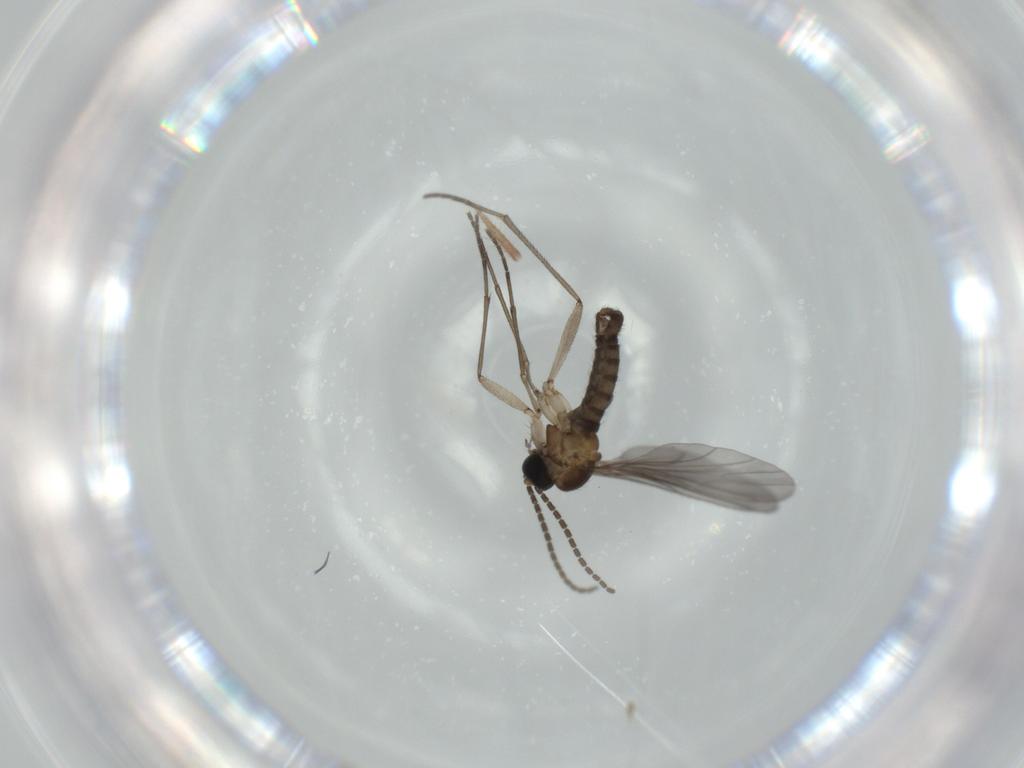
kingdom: Animalia
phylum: Arthropoda
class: Insecta
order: Diptera
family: Sciaridae
